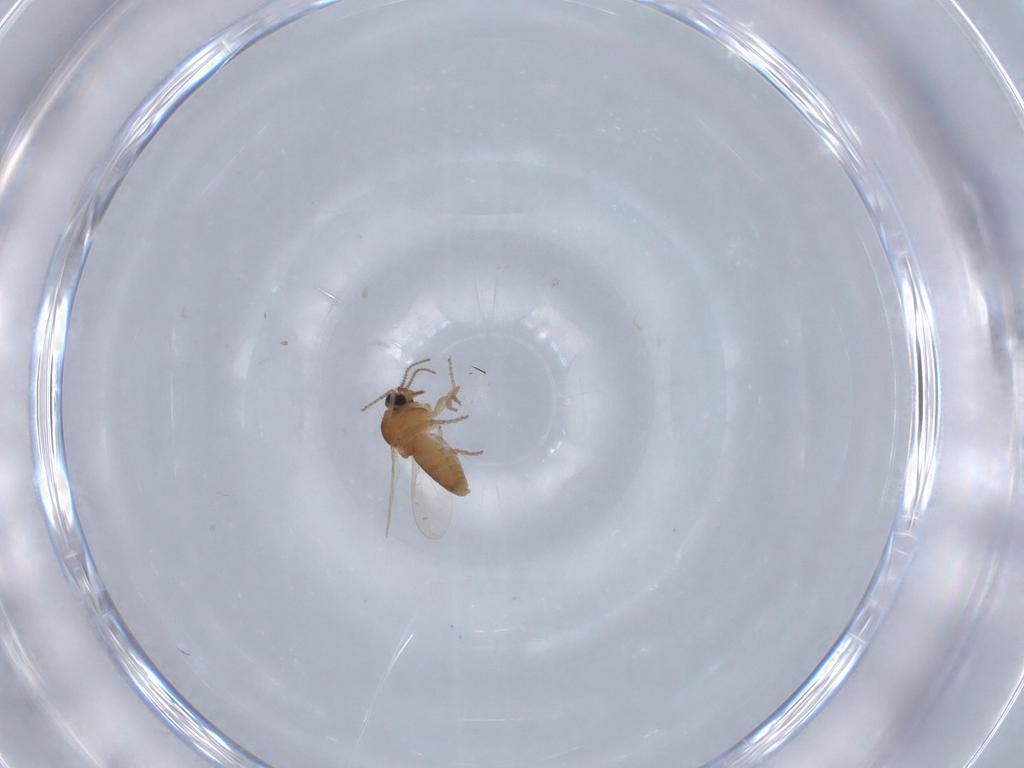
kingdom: Animalia
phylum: Arthropoda
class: Insecta
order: Diptera
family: Ceratopogonidae
